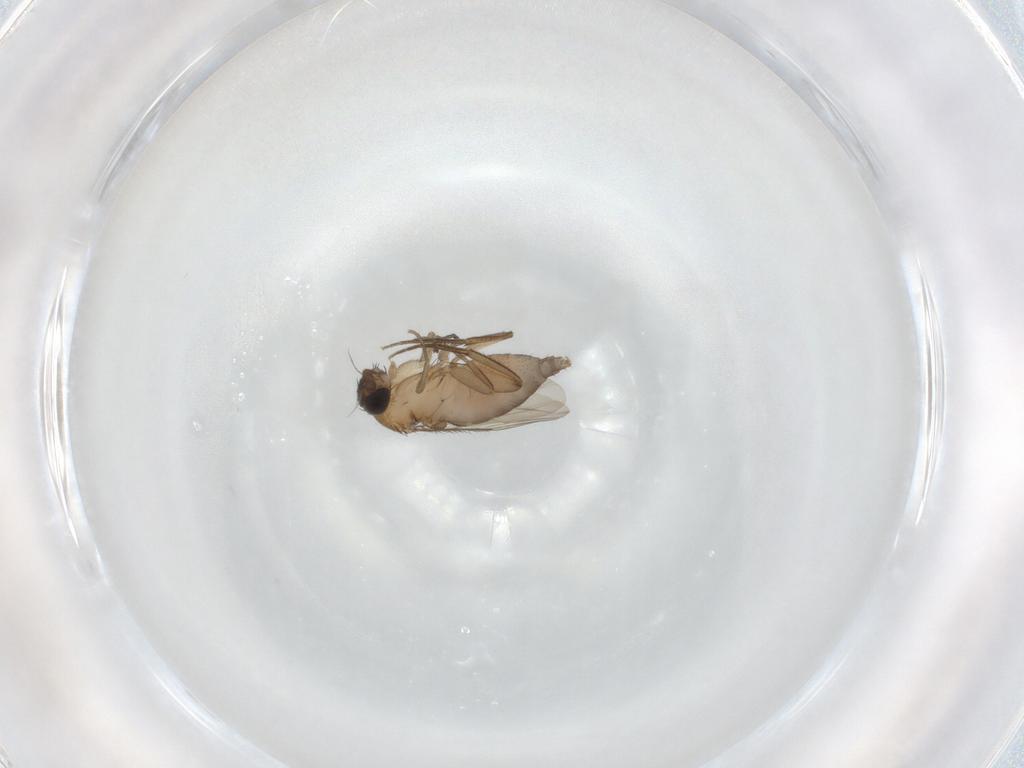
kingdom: Animalia
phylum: Arthropoda
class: Insecta
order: Diptera
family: Phoridae
